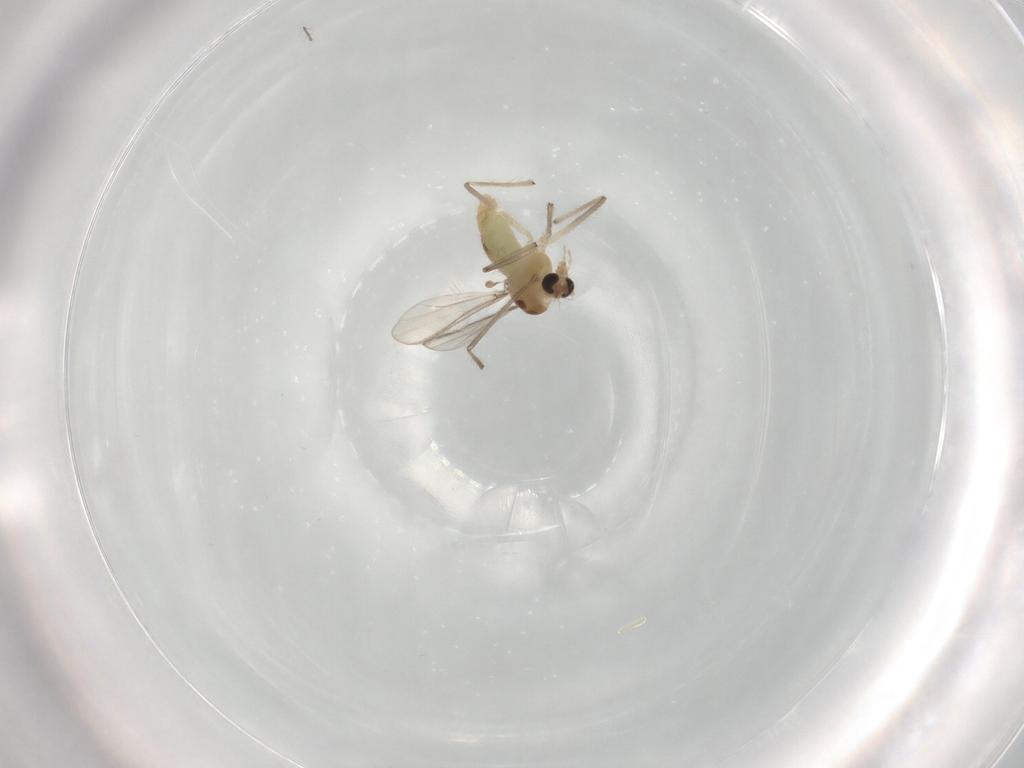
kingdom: Animalia
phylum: Arthropoda
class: Insecta
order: Diptera
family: Chironomidae
